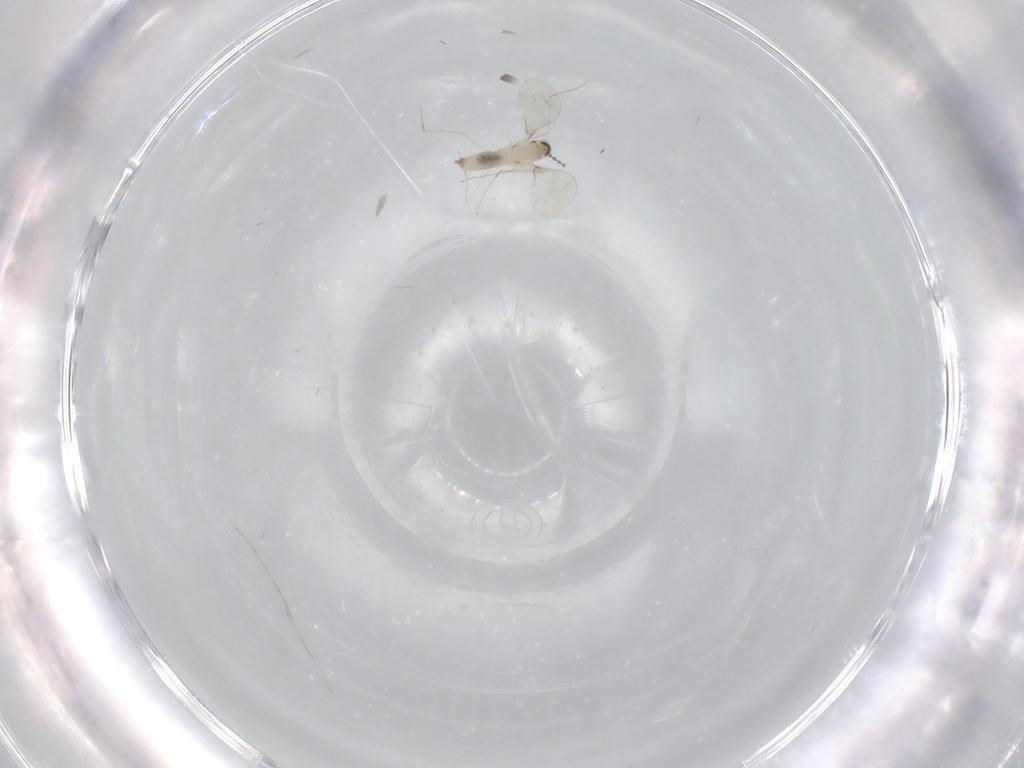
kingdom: Animalia
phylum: Arthropoda
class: Insecta
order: Diptera
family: Cecidomyiidae
